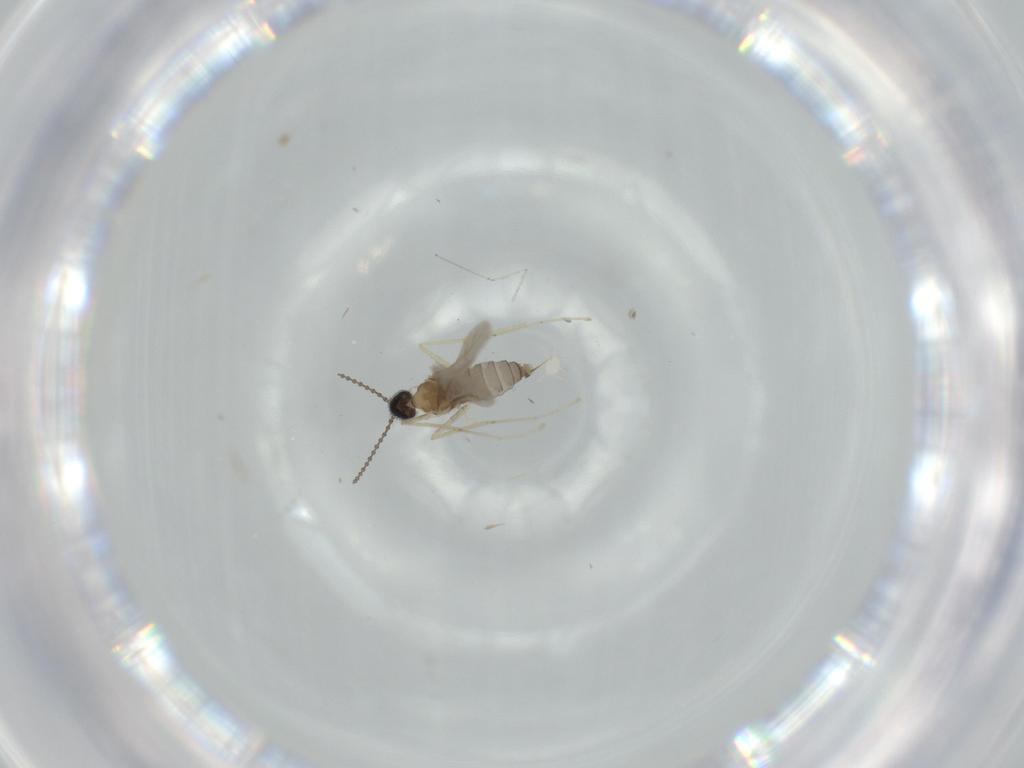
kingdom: Animalia
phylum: Arthropoda
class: Insecta
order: Diptera
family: Cecidomyiidae
